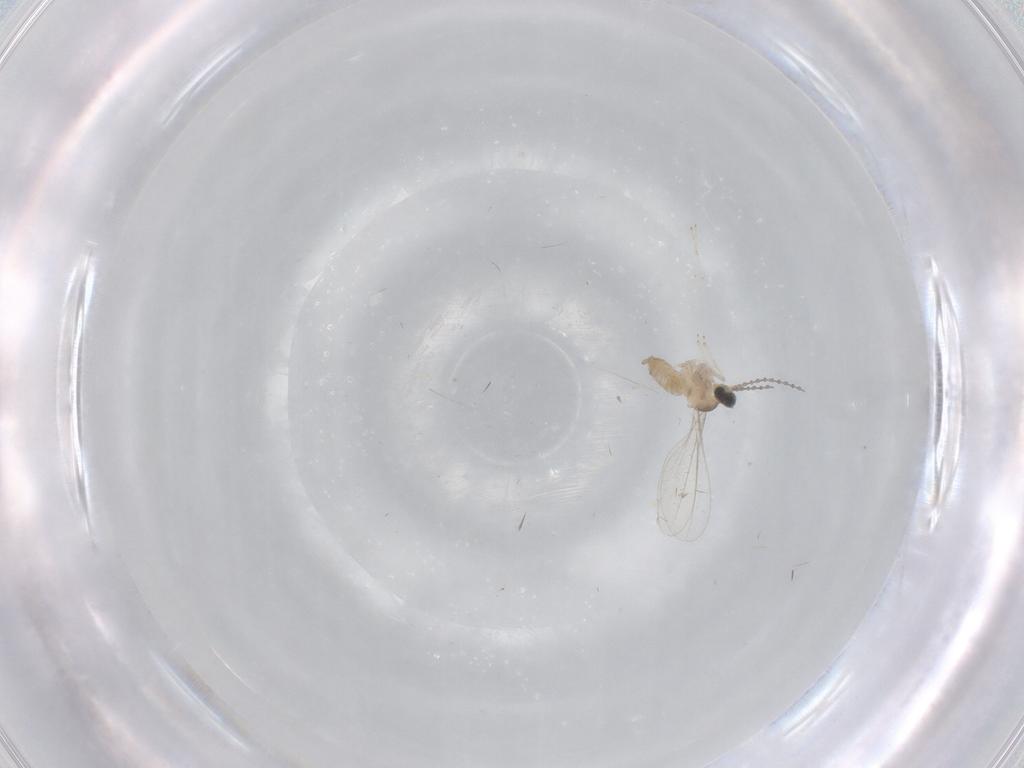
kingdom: Animalia
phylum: Arthropoda
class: Insecta
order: Diptera
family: Cecidomyiidae
